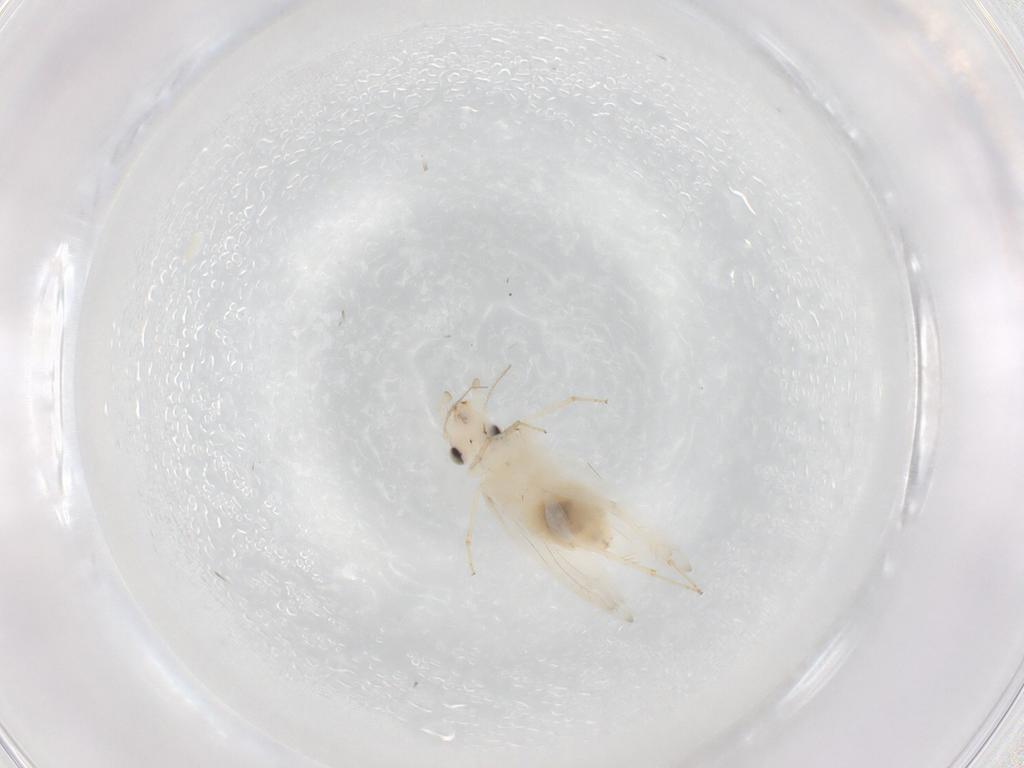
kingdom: Animalia
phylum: Arthropoda
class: Insecta
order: Psocodea
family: Lepidopsocidae
